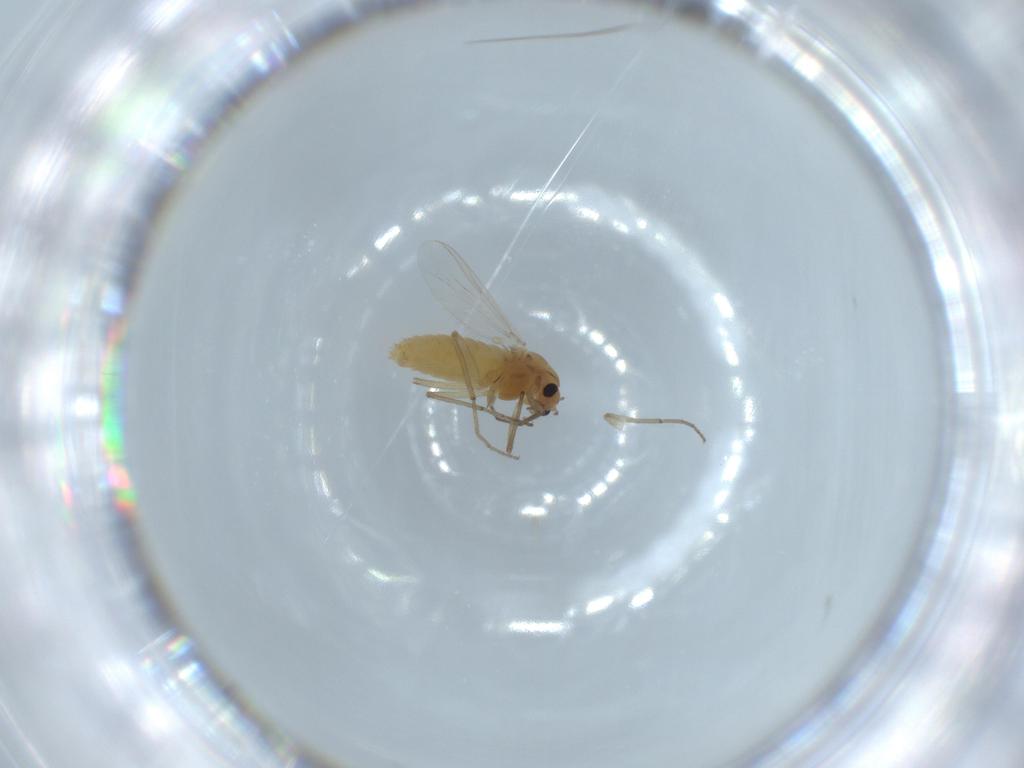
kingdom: Animalia
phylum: Arthropoda
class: Insecta
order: Diptera
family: Chironomidae
